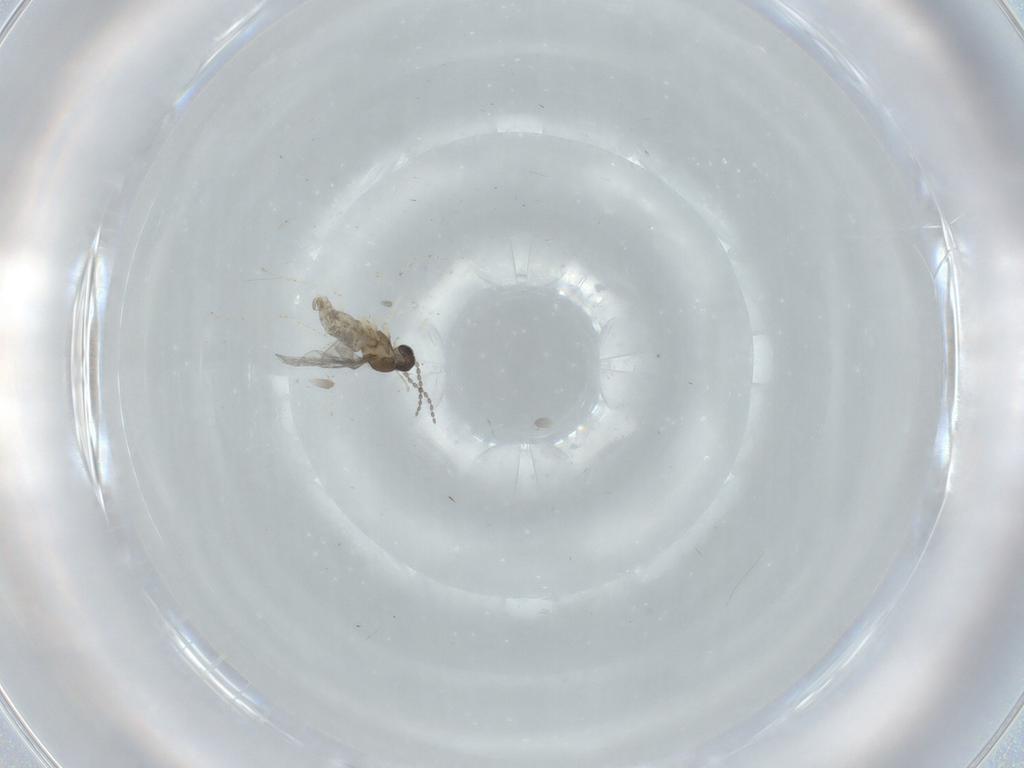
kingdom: Animalia
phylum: Arthropoda
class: Insecta
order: Diptera
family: Cecidomyiidae
